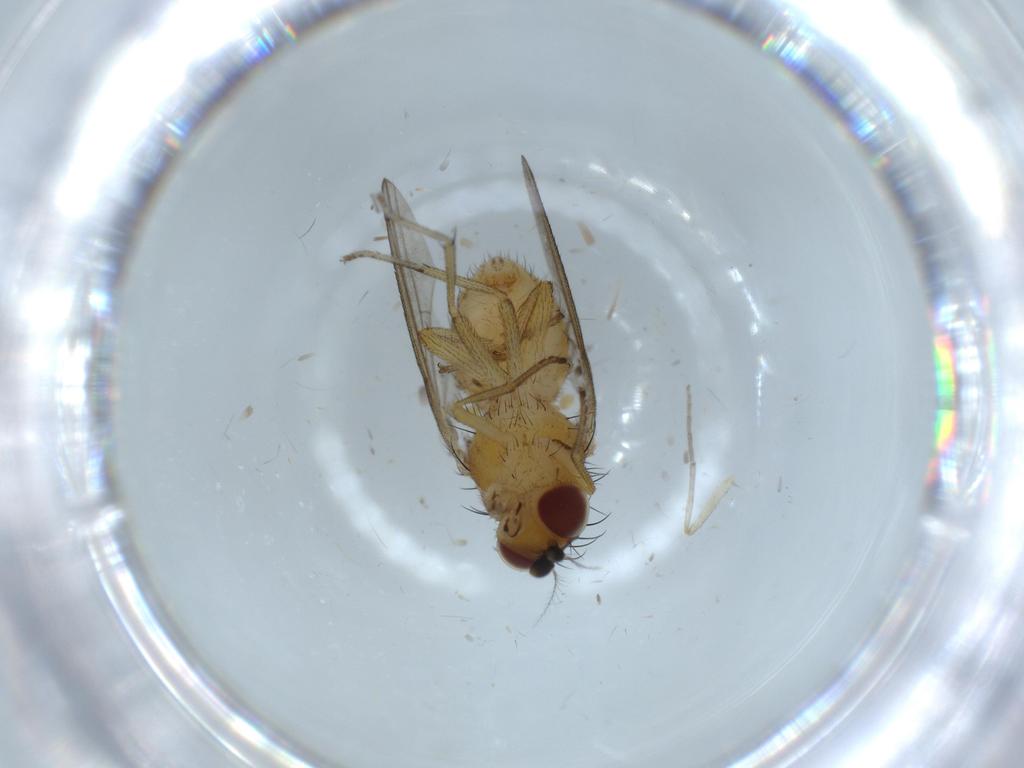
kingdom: Animalia
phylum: Arthropoda
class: Insecta
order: Diptera
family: Lauxaniidae
